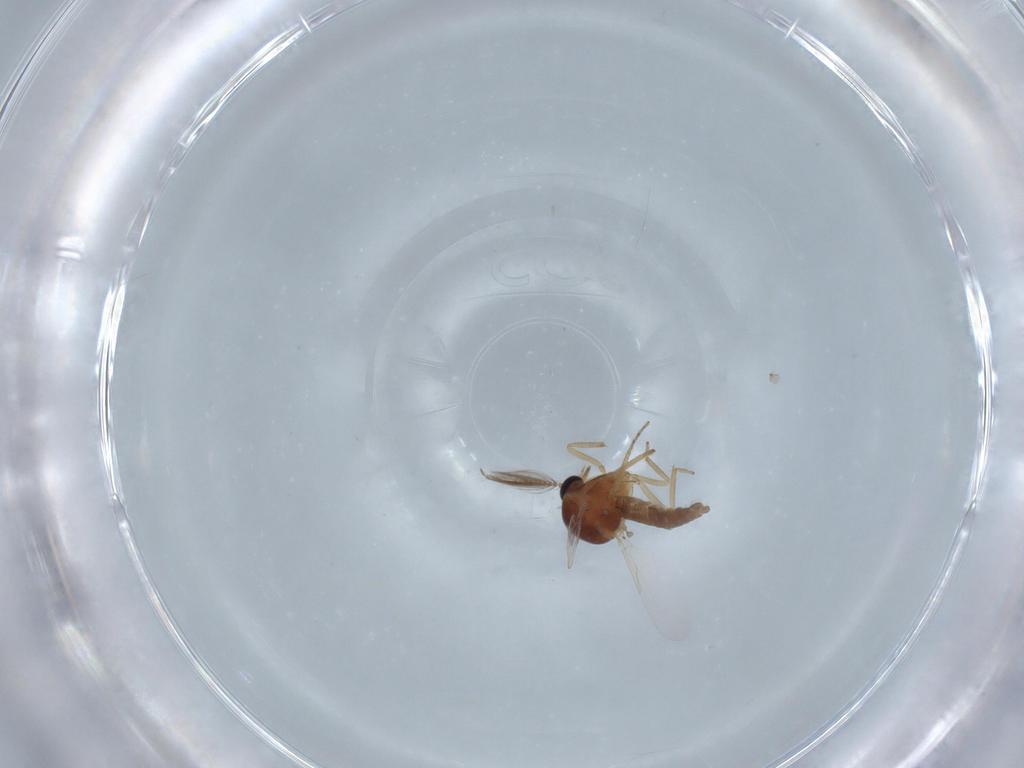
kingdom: Animalia
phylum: Arthropoda
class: Insecta
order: Diptera
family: Ceratopogonidae
